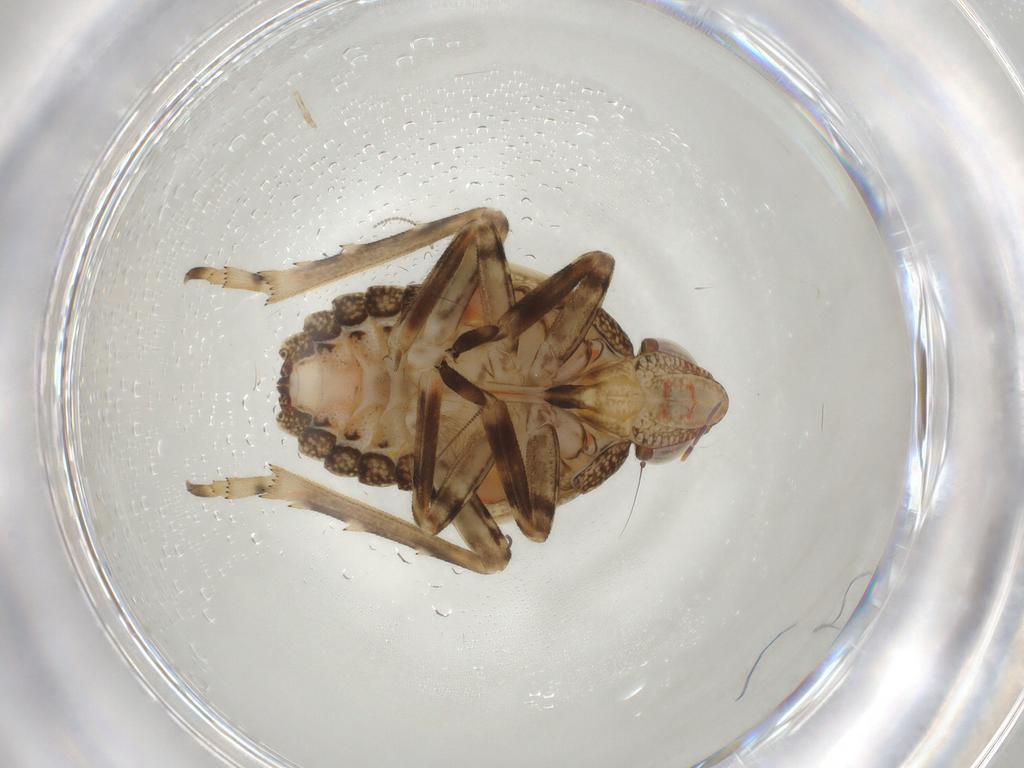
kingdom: Animalia
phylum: Arthropoda
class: Insecta
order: Hemiptera
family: Tropiduchidae
